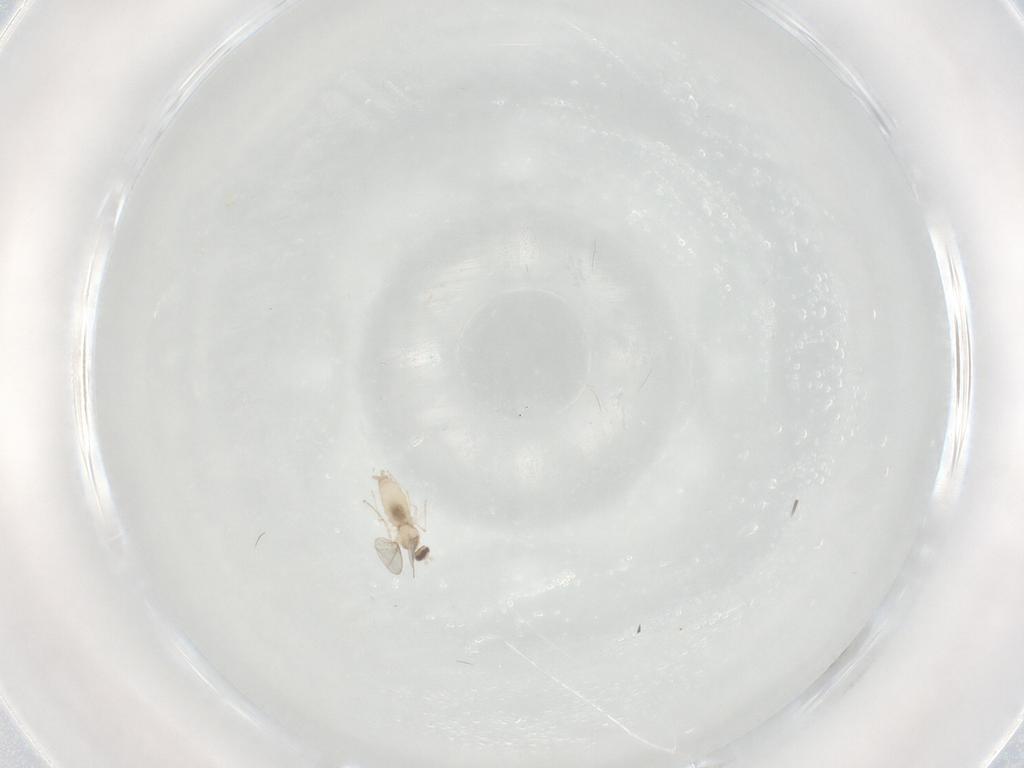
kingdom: Animalia
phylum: Arthropoda
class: Insecta
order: Diptera
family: Cecidomyiidae
